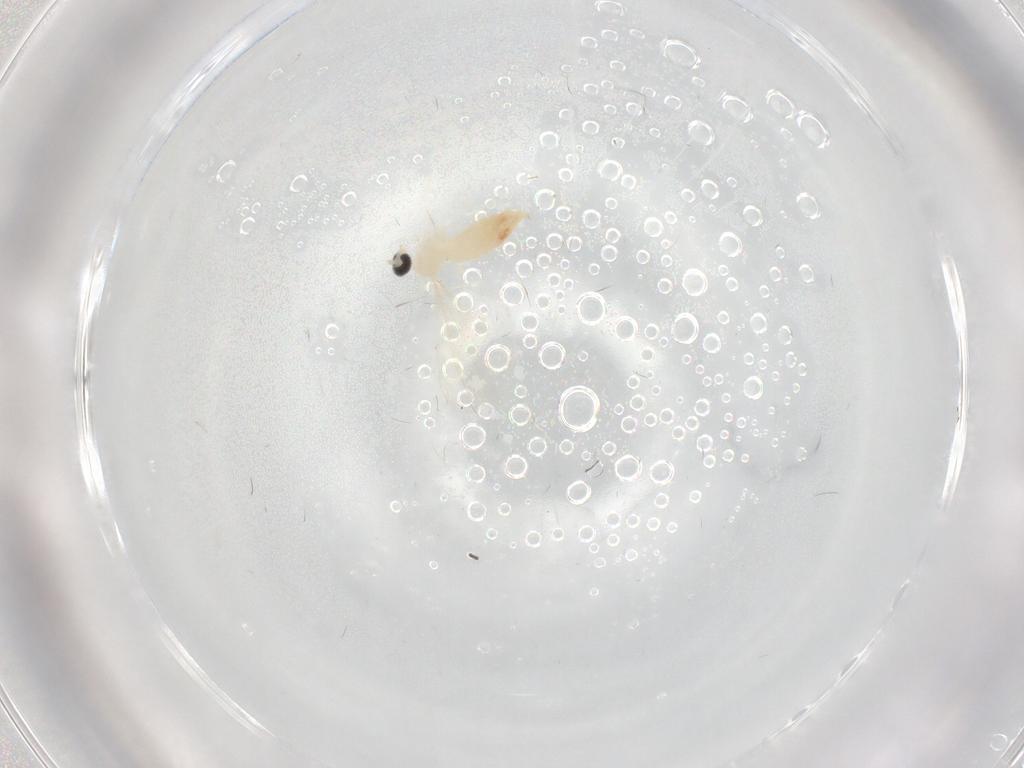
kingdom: Animalia
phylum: Arthropoda
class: Insecta
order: Diptera
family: Cecidomyiidae
